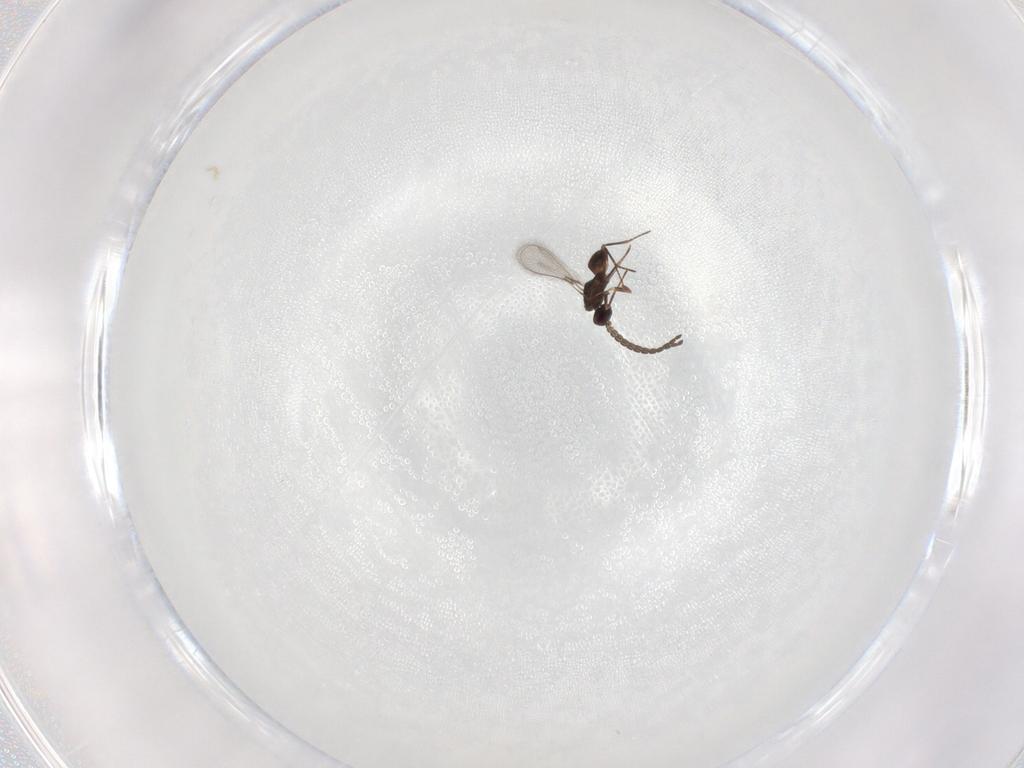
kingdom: Animalia
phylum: Arthropoda
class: Insecta
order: Hymenoptera
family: Mymaridae
